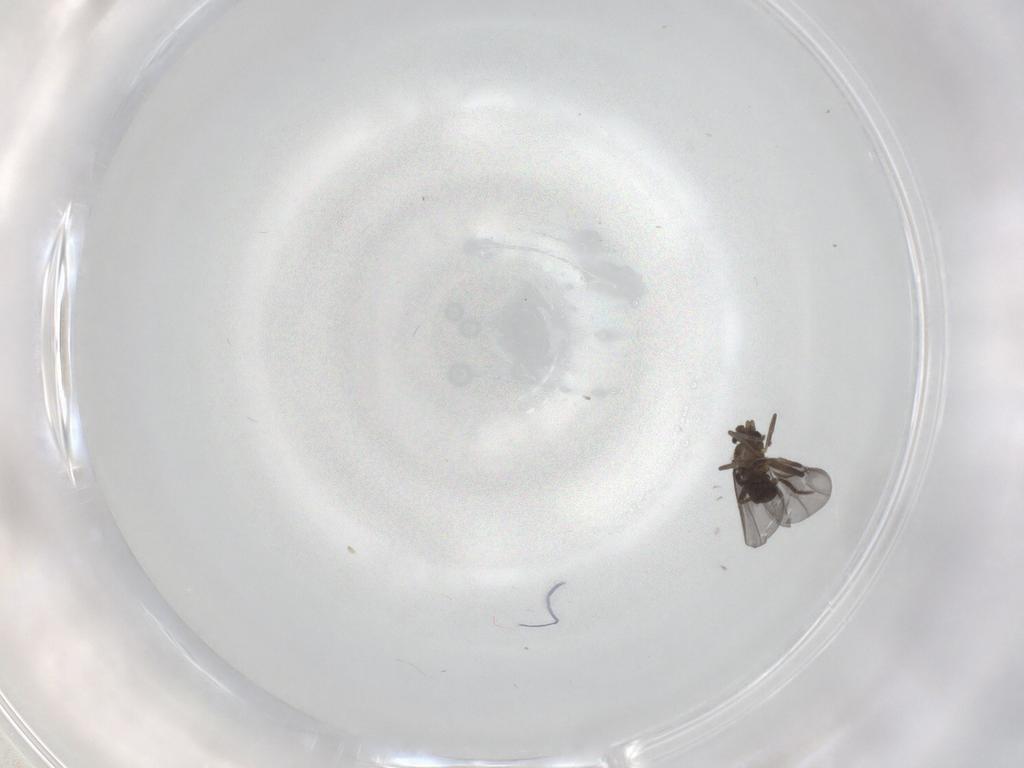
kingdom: Animalia
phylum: Arthropoda
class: Insecta
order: Diptera
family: Phoridae
